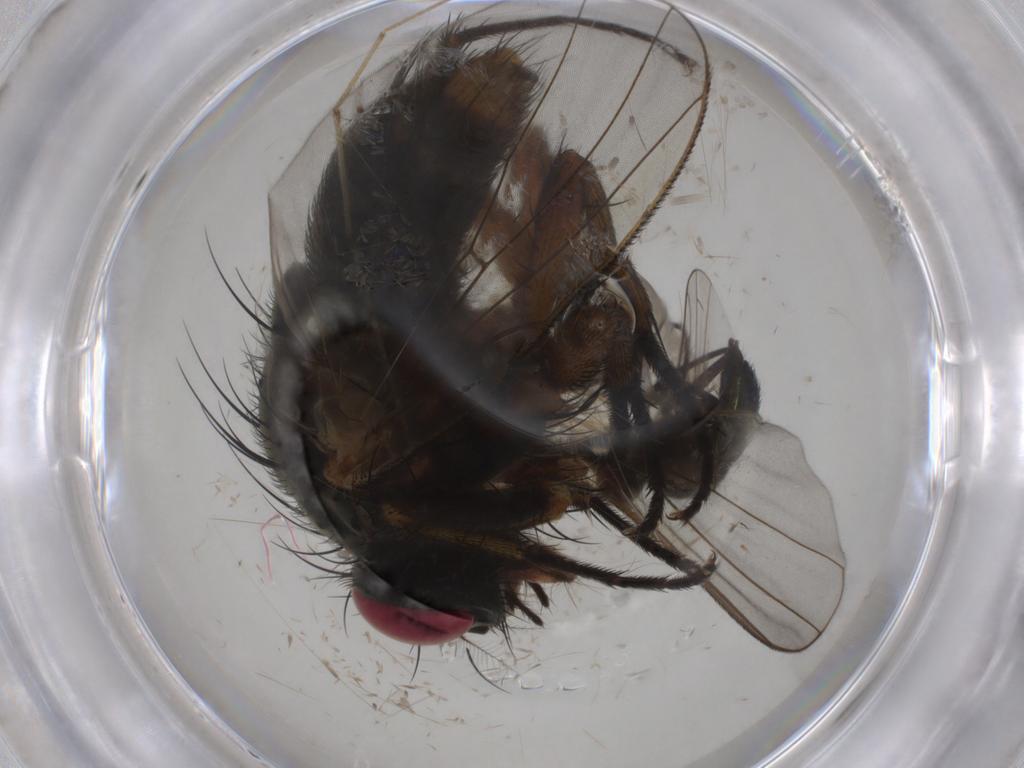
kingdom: Animalia
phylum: Arthropoda
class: Insecta
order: Diptera
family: Muscidae
